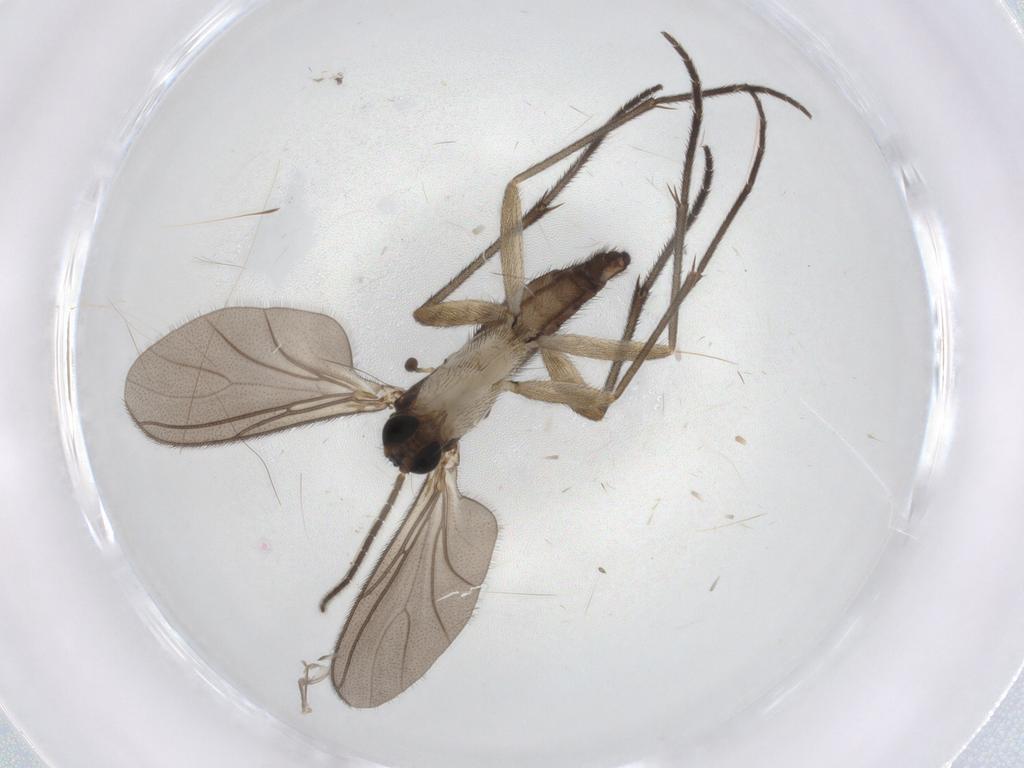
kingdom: Animalia
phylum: Arthropoda
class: Insecta
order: Diptera
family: Sciaridae
